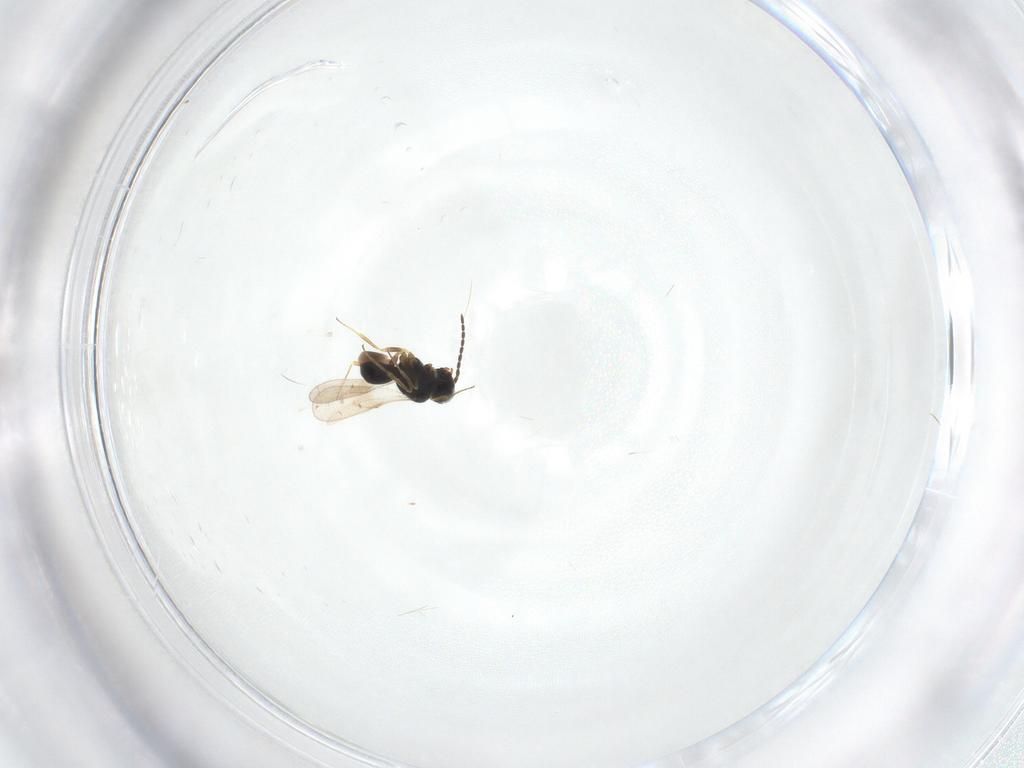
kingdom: Animalia
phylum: Arthropoda
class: Insecta
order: Hymenoptera
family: Scelionidae
